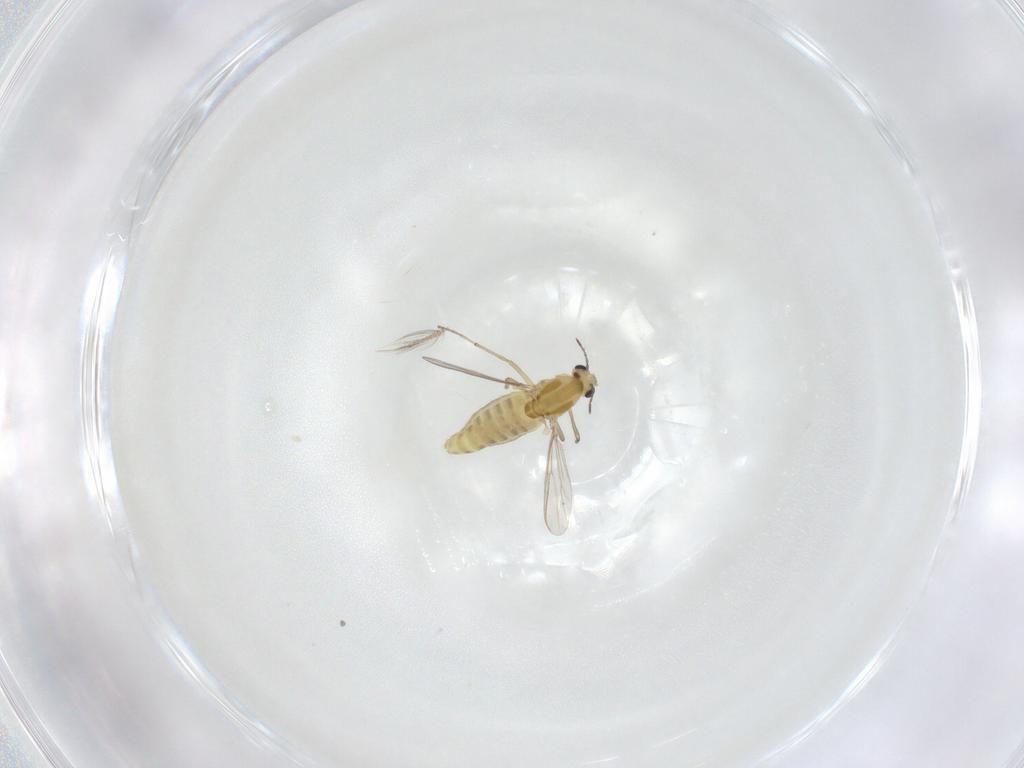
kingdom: Animalia
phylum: Arthropoda
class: Insecta
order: Diptera
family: Chironomidae
